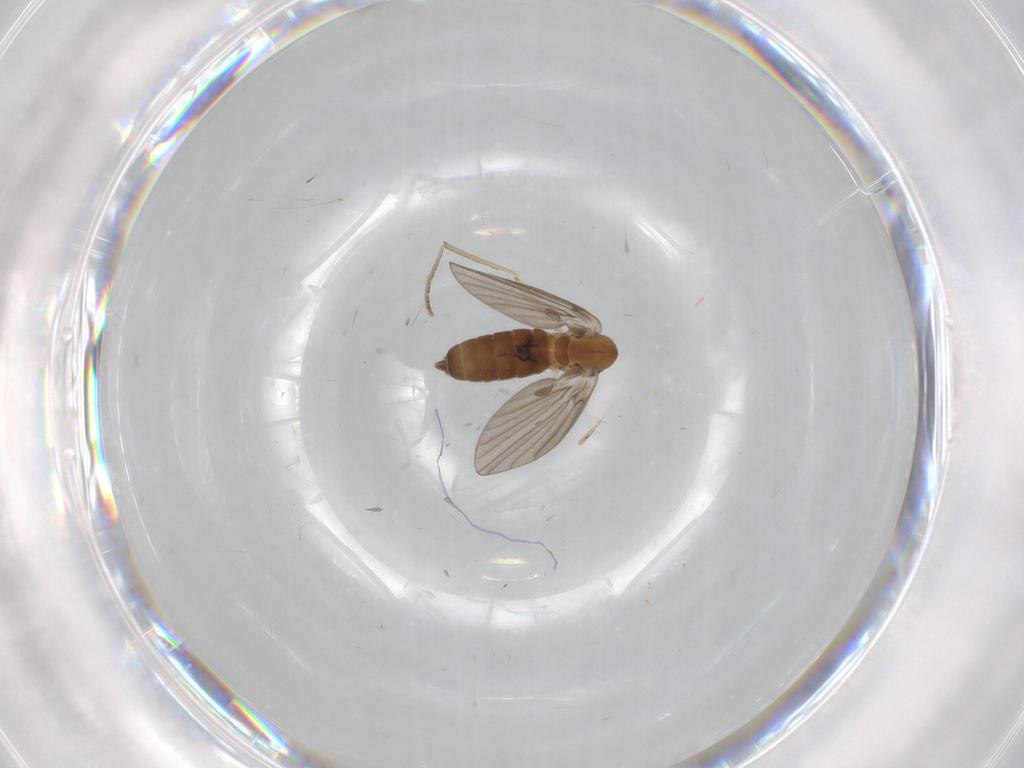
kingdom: Animalia
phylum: Arthropoda
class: Insecta
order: Diptera
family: Ceratopogonidae
